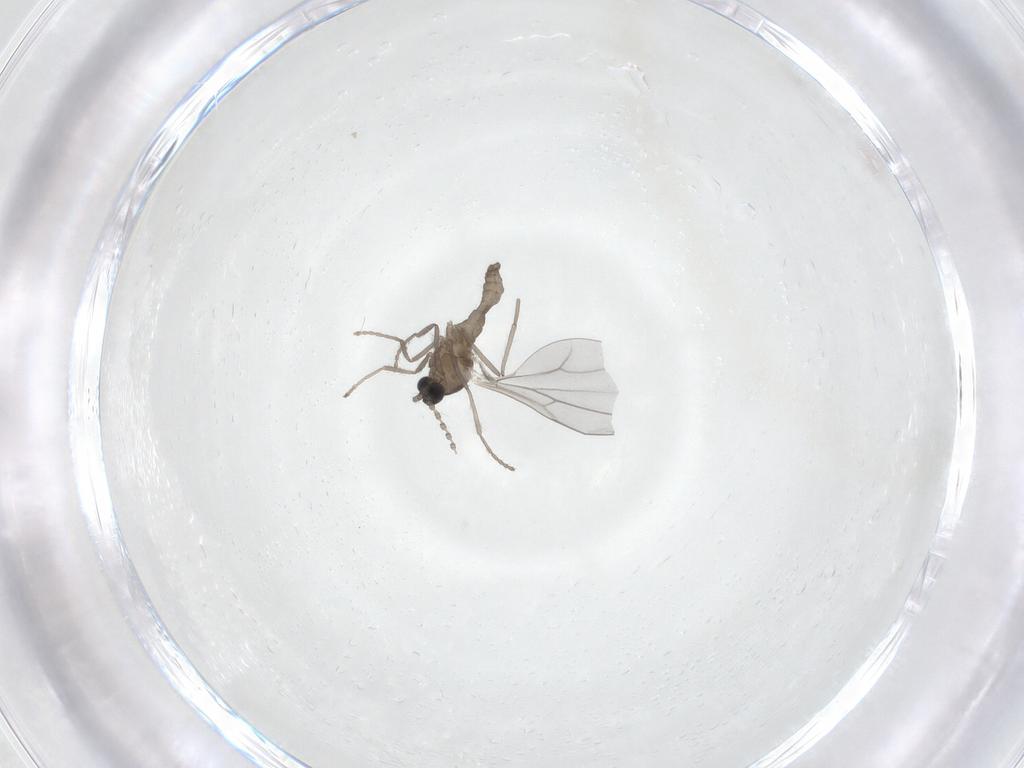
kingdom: Animalia
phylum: Arthropoda
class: Insecta
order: Diptera
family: Cecidomyiidae
